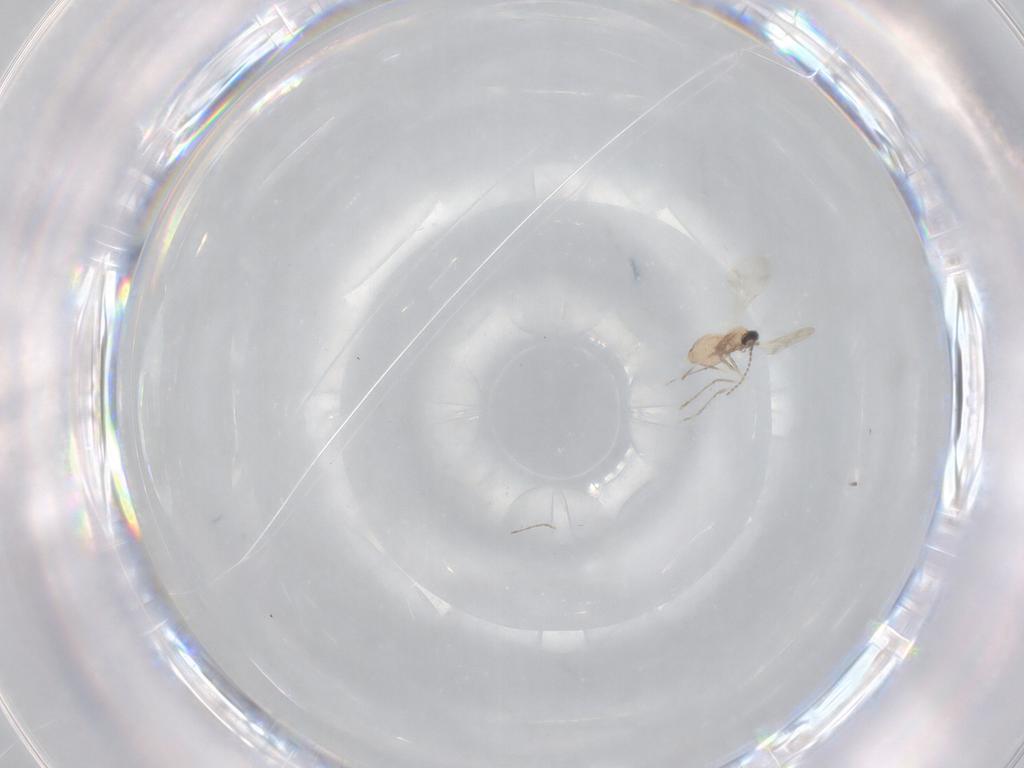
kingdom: Animalia
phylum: Arthropoda
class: Insecta
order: Diptera
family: Cecidomyiidae
